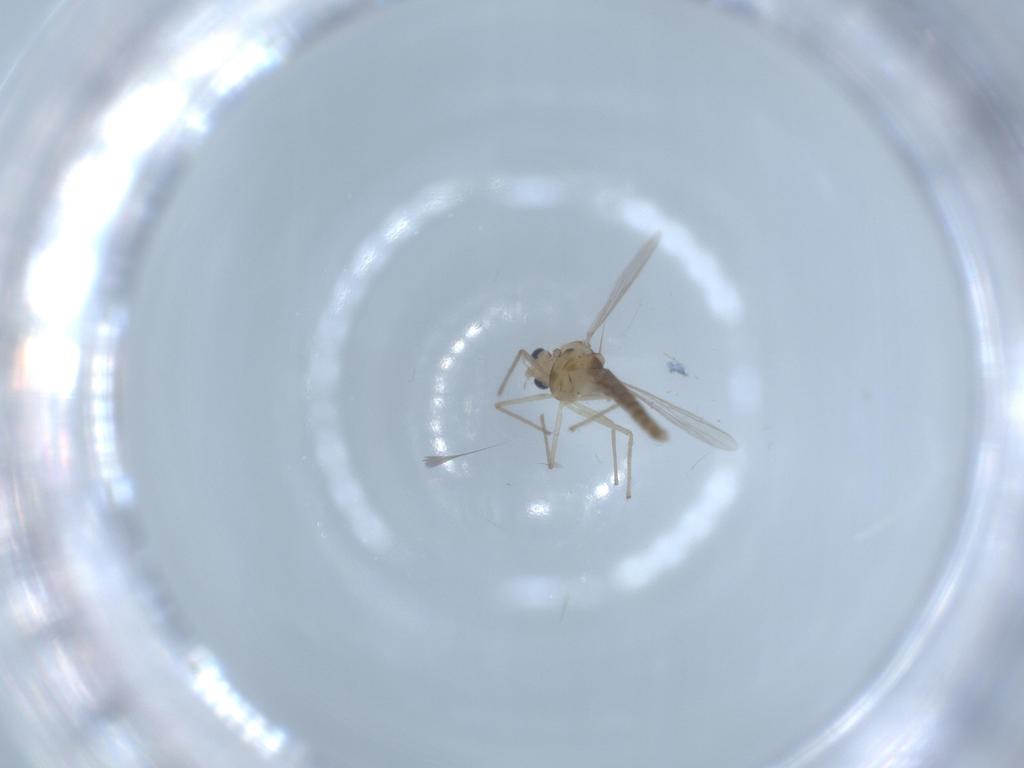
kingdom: Animalia
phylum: Arthropoda
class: Insecta
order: Diptera
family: Chironomidae
